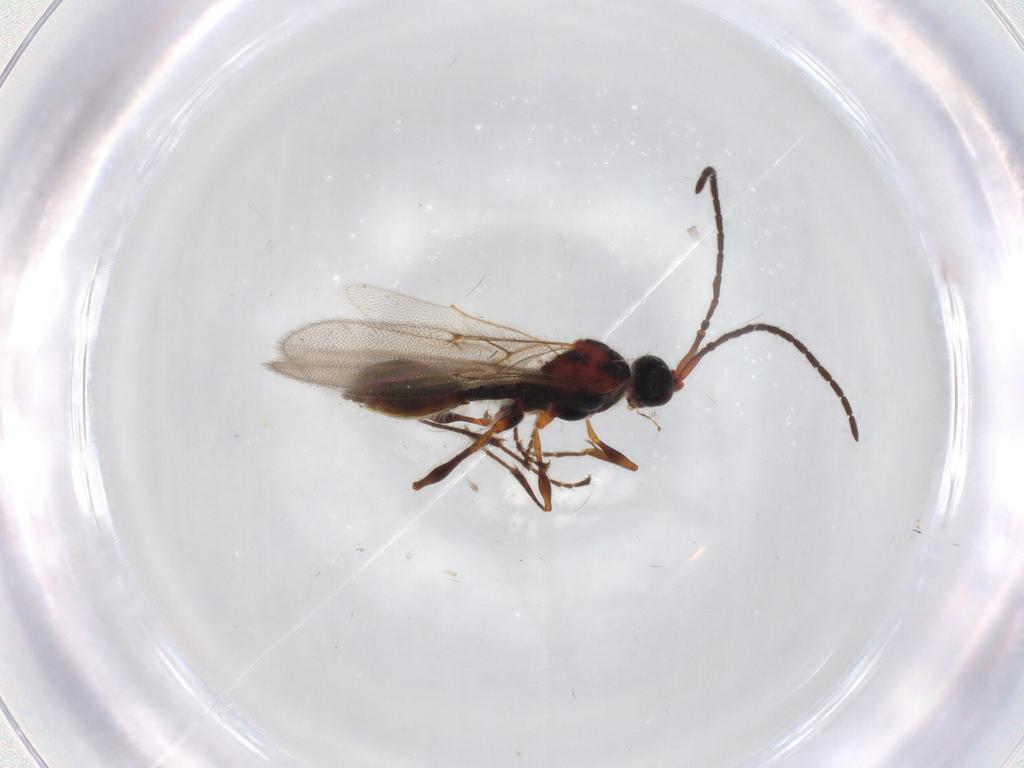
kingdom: Animalia
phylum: Arthropoda
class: Insecta
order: Hymenoptera
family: Diapriidae
